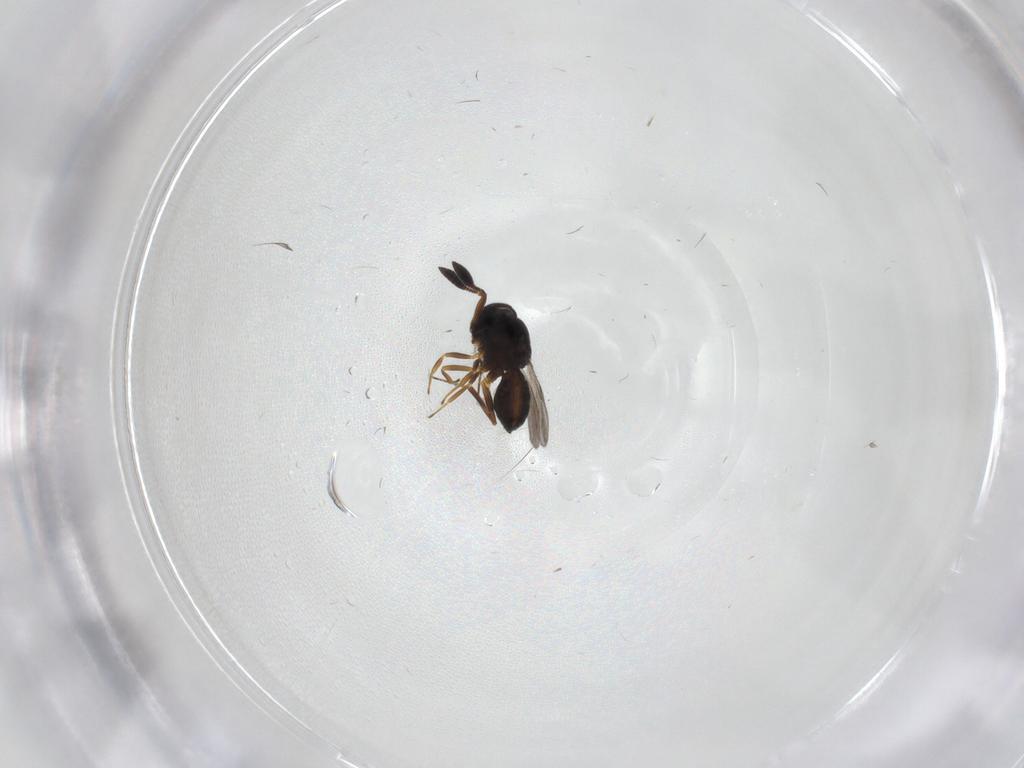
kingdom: Animalia
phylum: Arthropoda
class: Insecta
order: Hymenoptera
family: Scelionidae
